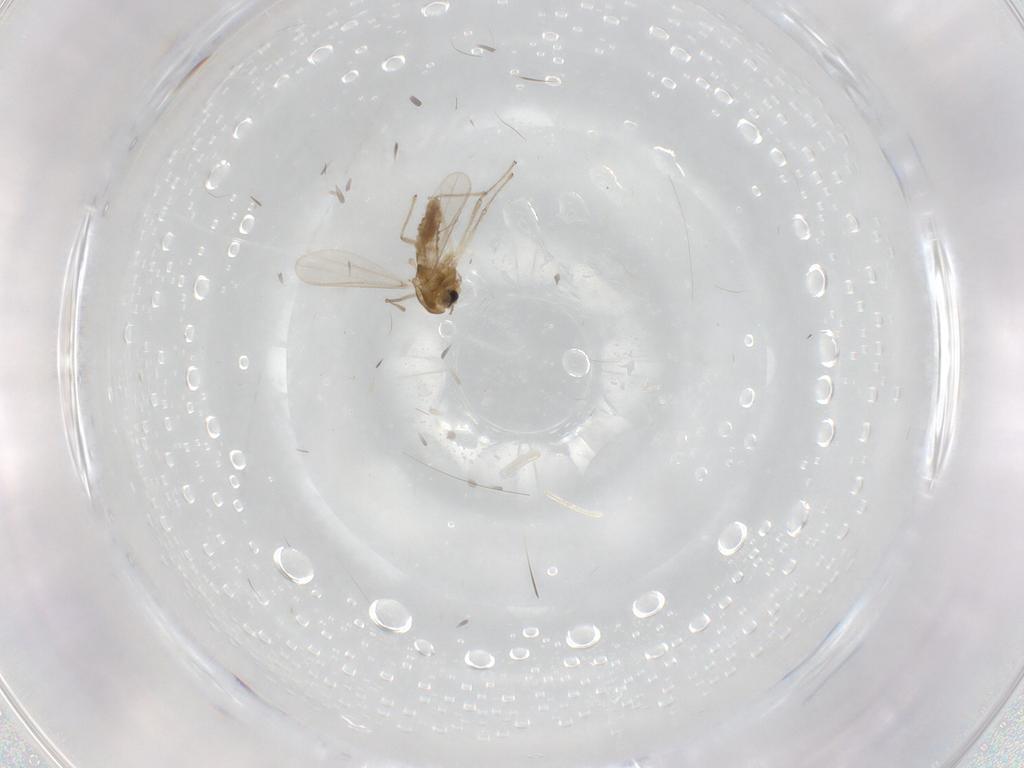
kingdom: Animalia
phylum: Arthropoda
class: Insecta
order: Diptera
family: Chironomidae
